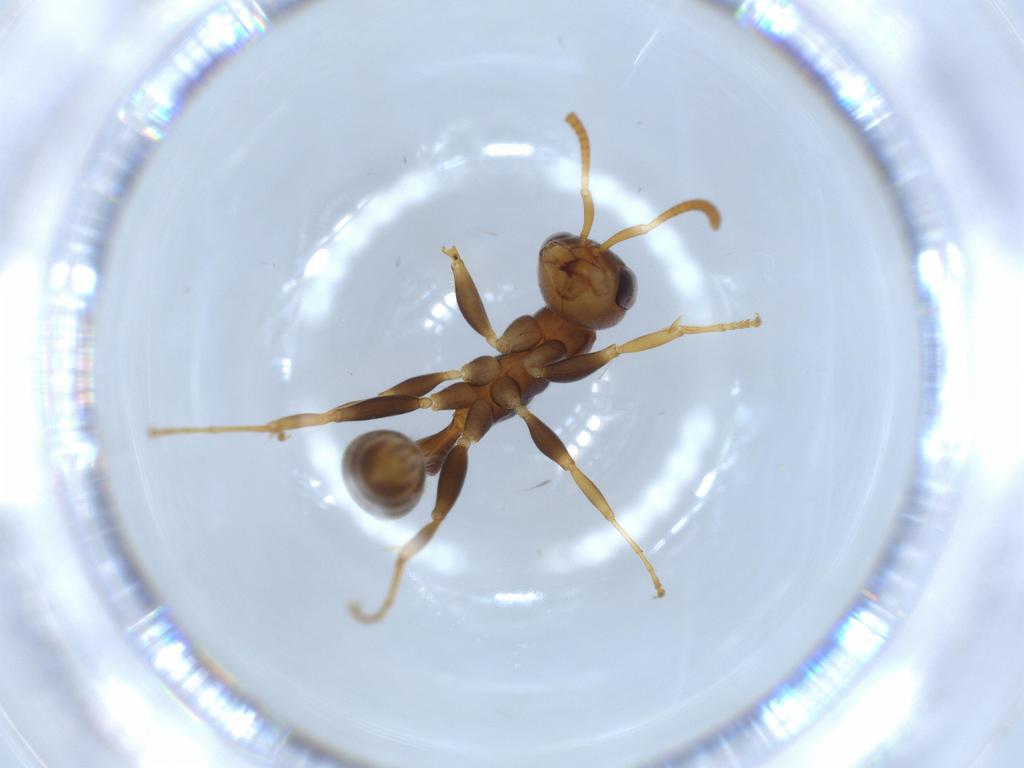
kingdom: Animalia
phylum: Arthropoda
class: Insecta
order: Hymenoptera
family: Formicidae
